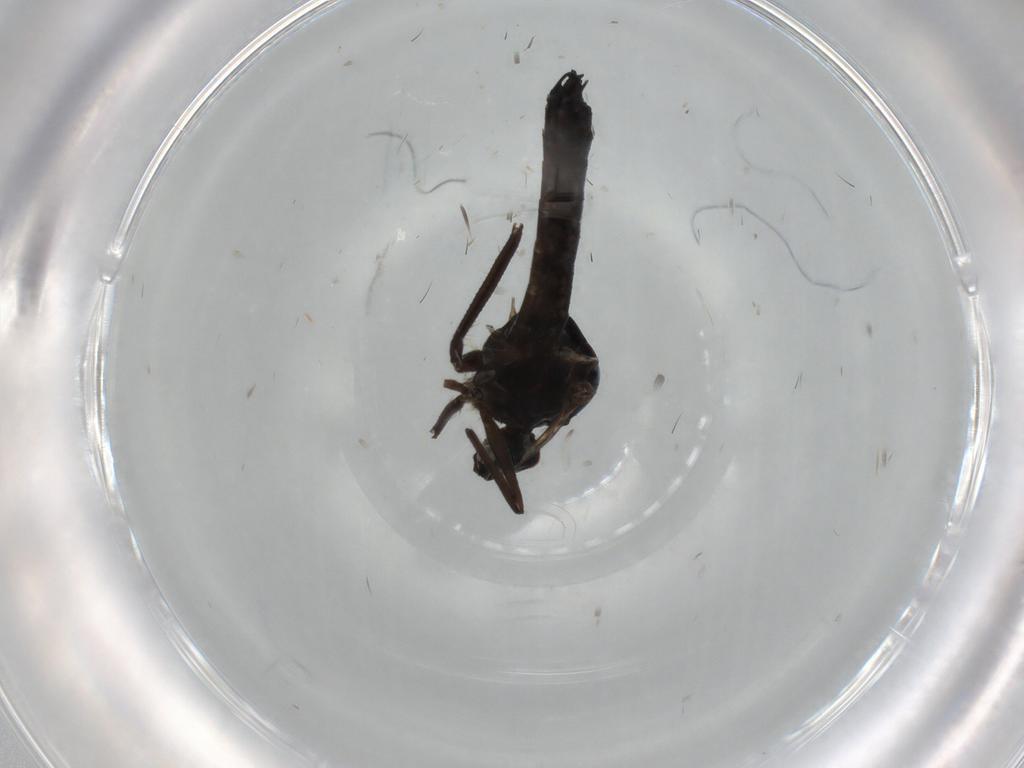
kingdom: Animalia
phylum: Arthropoda
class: Insecta
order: Diptera
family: Hybotidae
